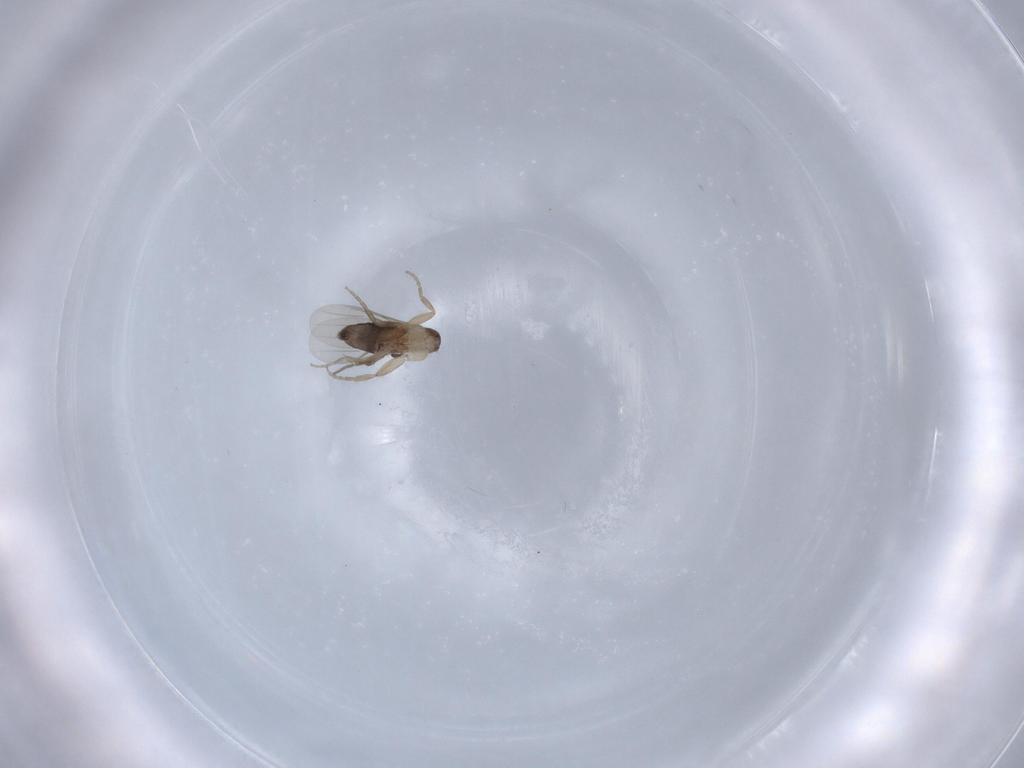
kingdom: Animalia
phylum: Arthropoda
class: Insecta
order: Diptera
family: Phoridae
